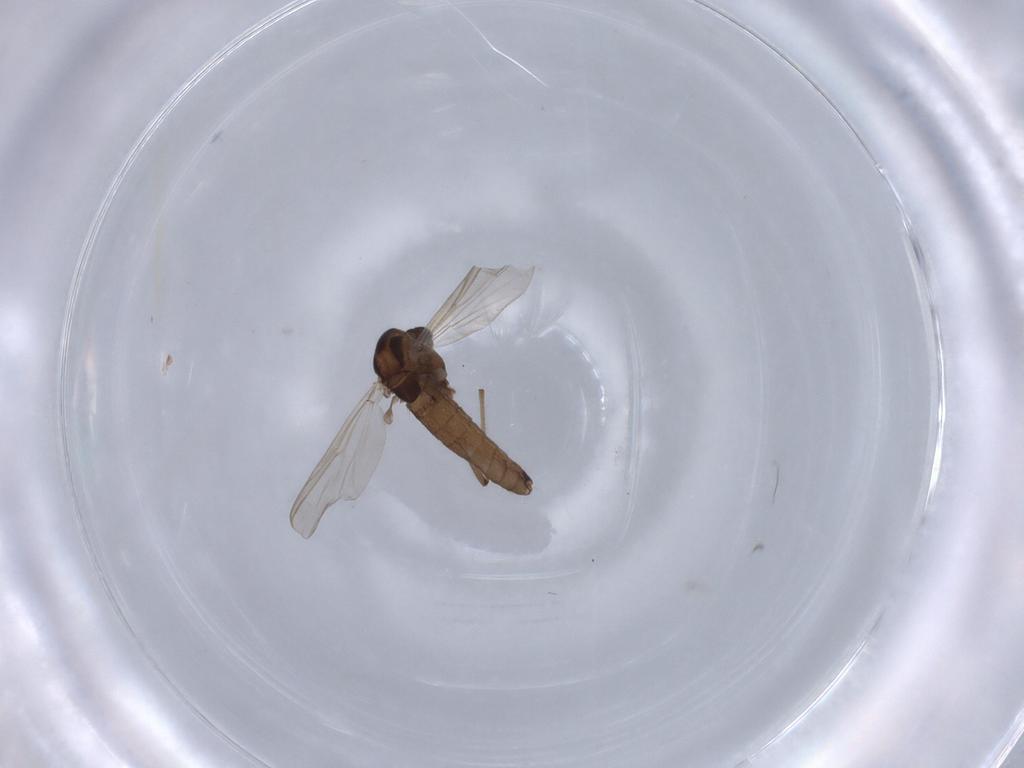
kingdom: Animalia
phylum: Arthropoda
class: Insecta
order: Diptera
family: Chironomidae
